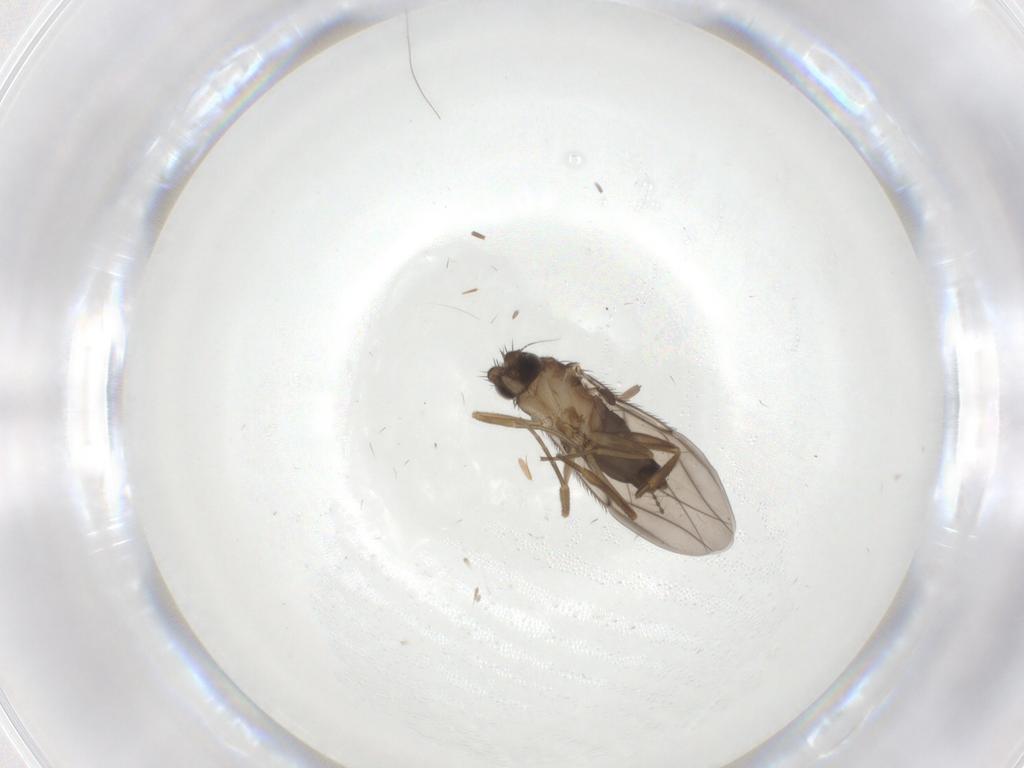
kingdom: Animalia
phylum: Arthropoda
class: Insecta
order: Diptera
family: Phoridae
